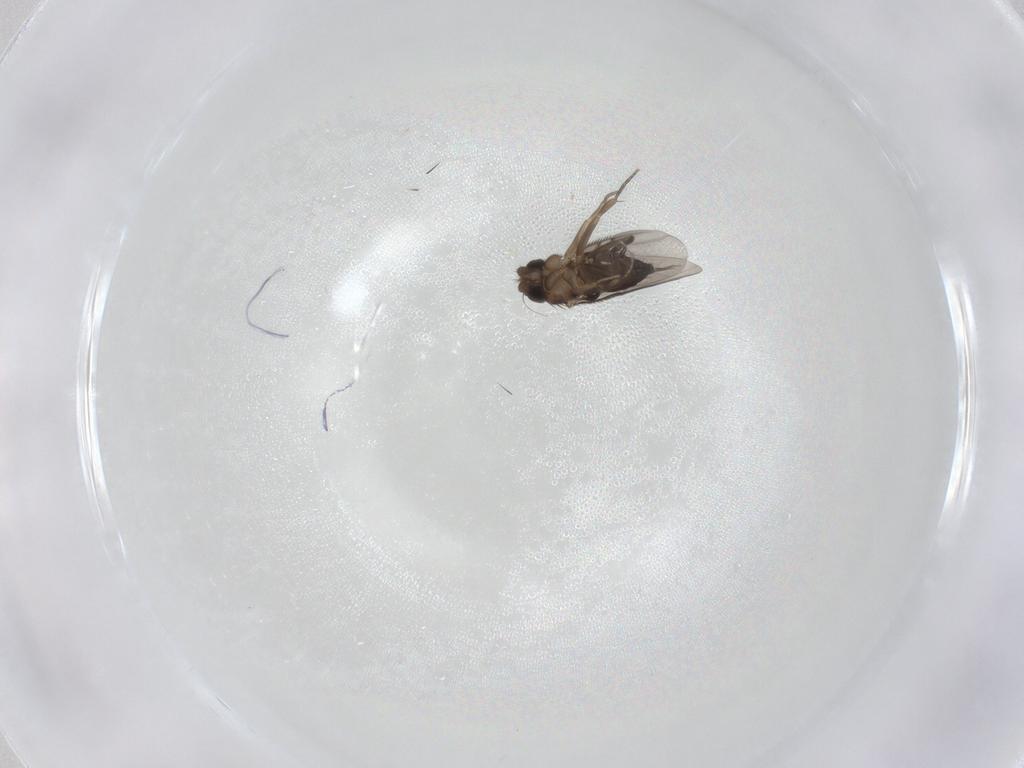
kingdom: Animalia
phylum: Arthropoda
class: Insecta
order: Diptera
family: Phoridae
